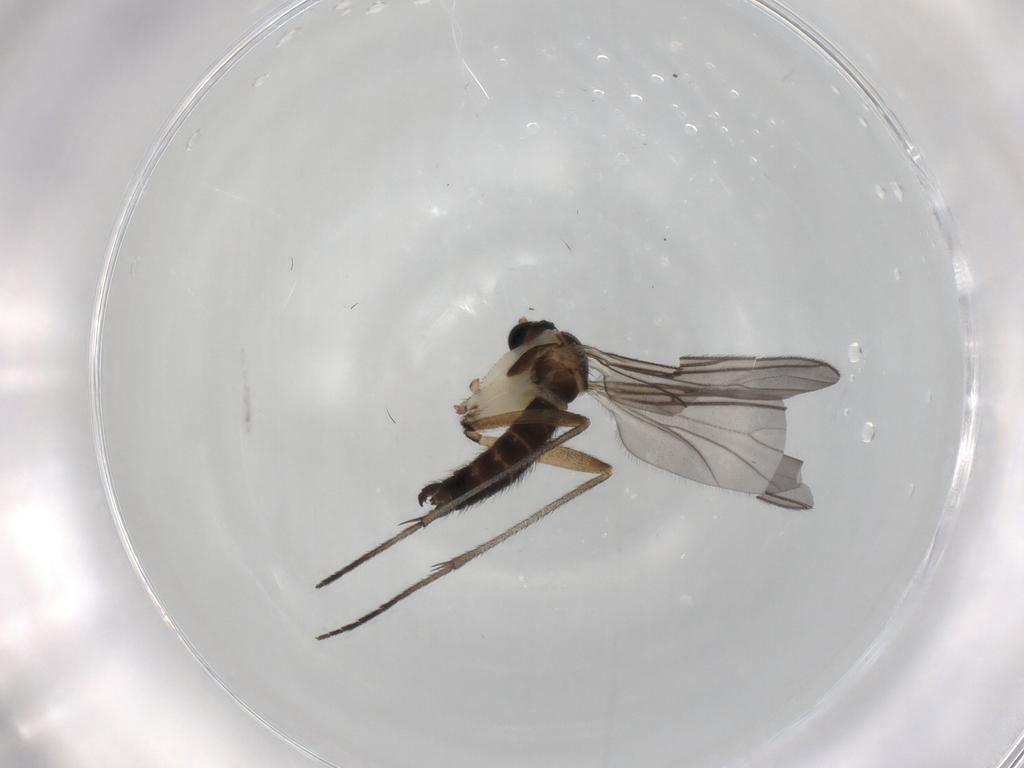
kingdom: Animalia
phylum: Arthropoda
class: Insecta
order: Diptera
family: Sciaridae
